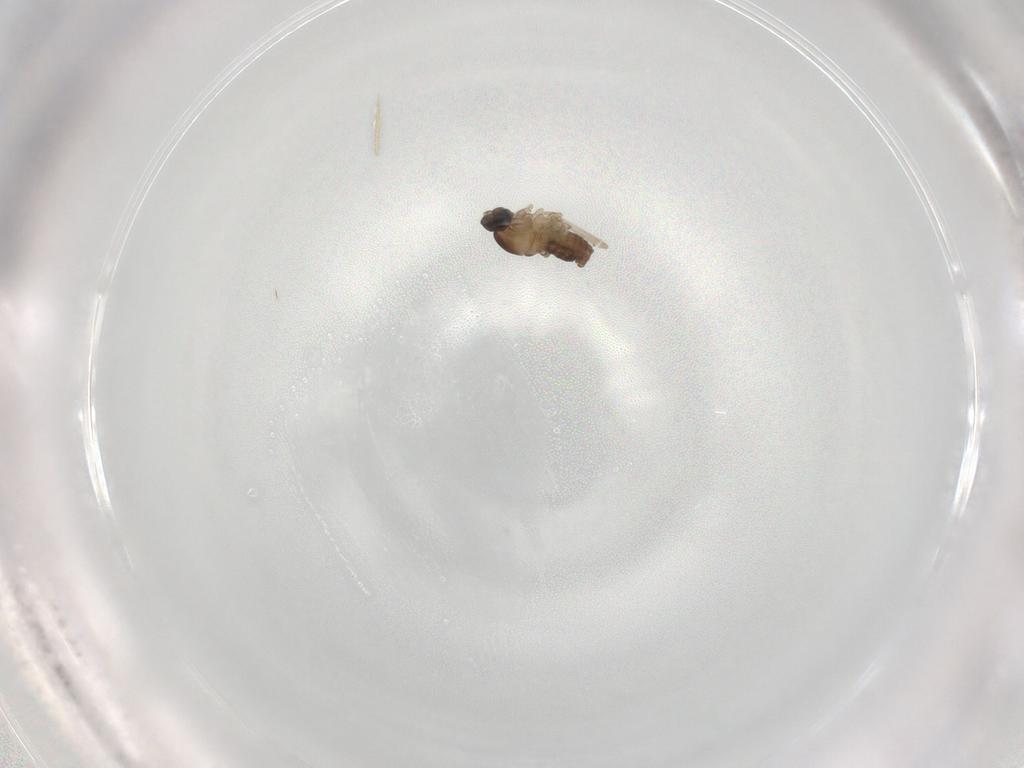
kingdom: Animalia
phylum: Arthropoda
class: Insecta
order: Diptera
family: Cecidomyiidae
